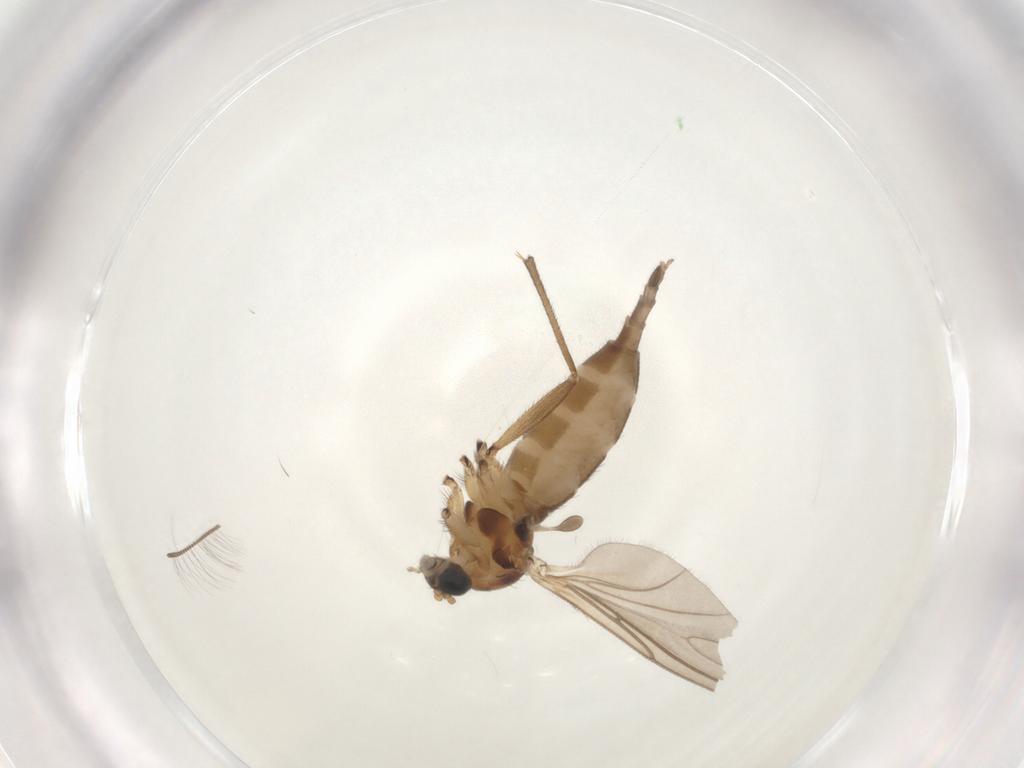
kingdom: Animalia
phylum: Arthropoda
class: Insecta
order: Diptera
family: Sciaridae
